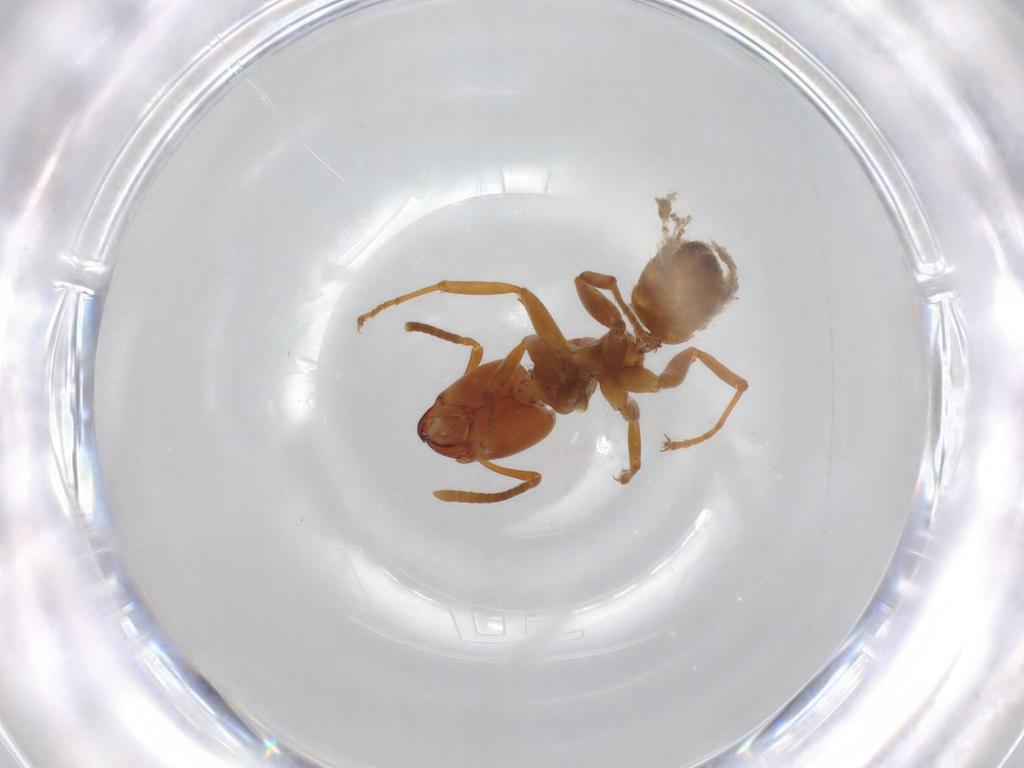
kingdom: Animalia
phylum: Arthropoda
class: Insecta
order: Hymenoptera
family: Formicidae
